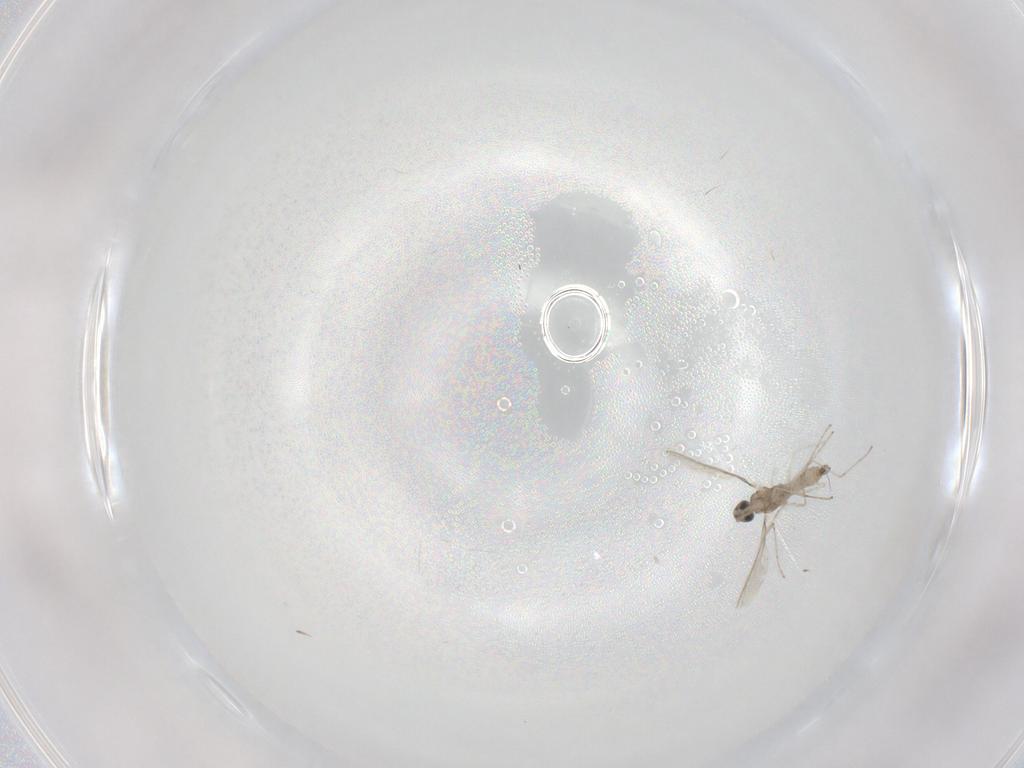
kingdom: Animalia
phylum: Arthropoda
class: Insecta
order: Diptera
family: Cecidomyiidae
